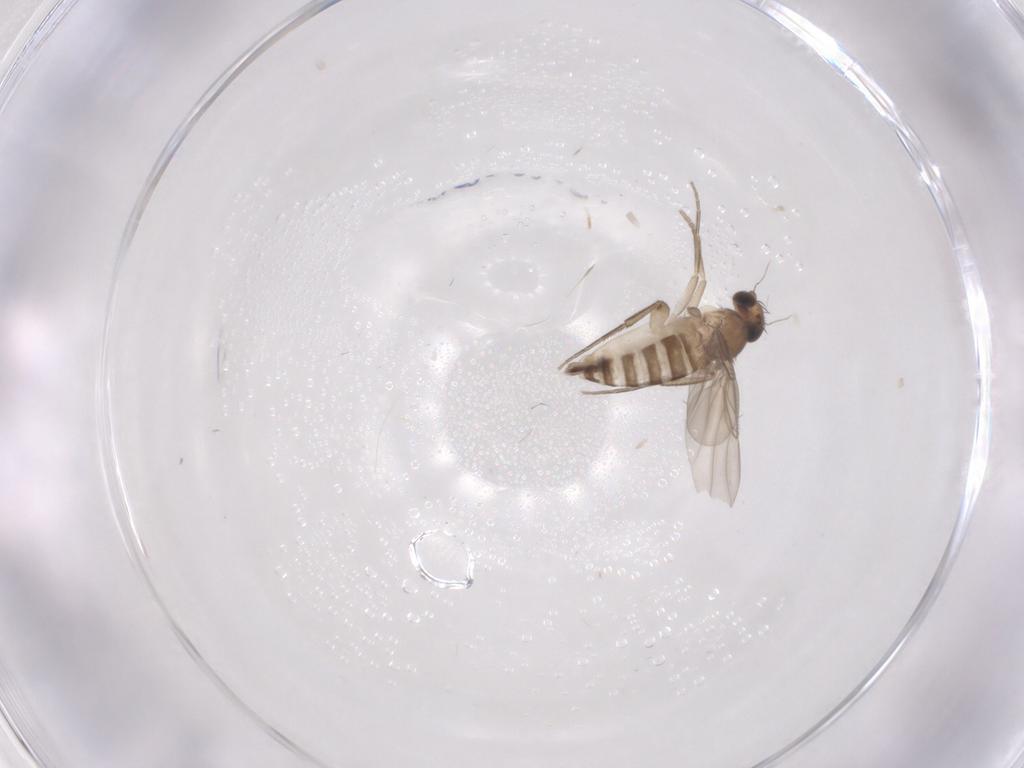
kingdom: Animalia
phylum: Arthropoda
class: Insecta
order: Diptera
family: Phoridae
